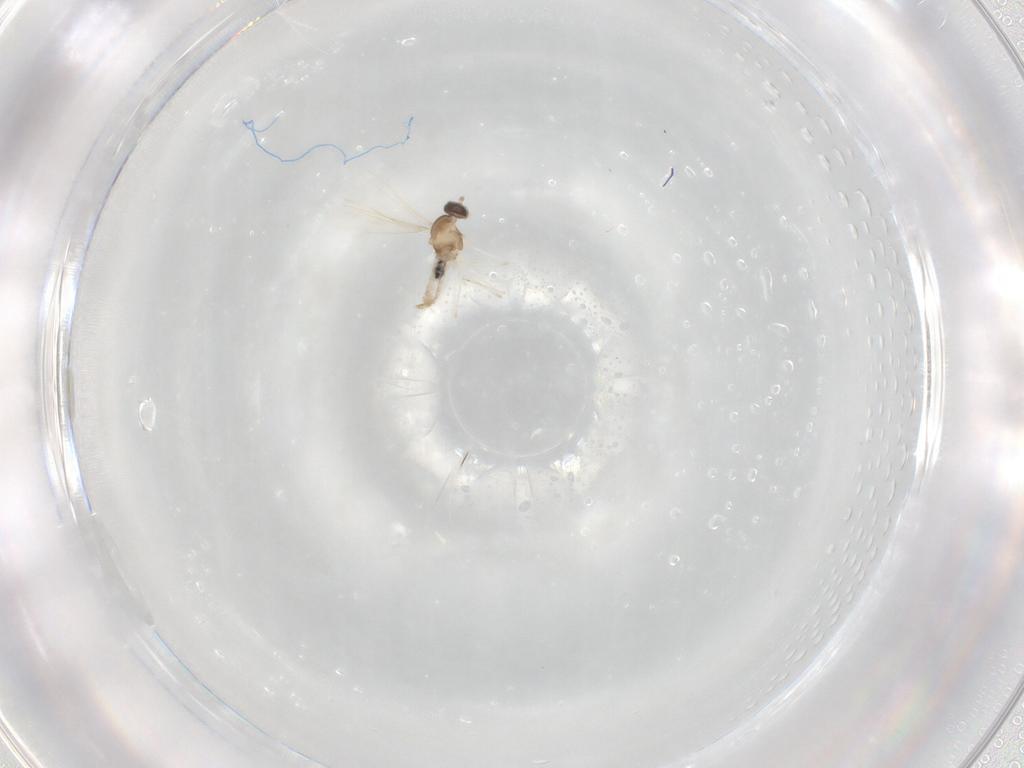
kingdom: Animalia
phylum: Arthropoda
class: Insecta
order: Diptera
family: Cecidomyiidae
